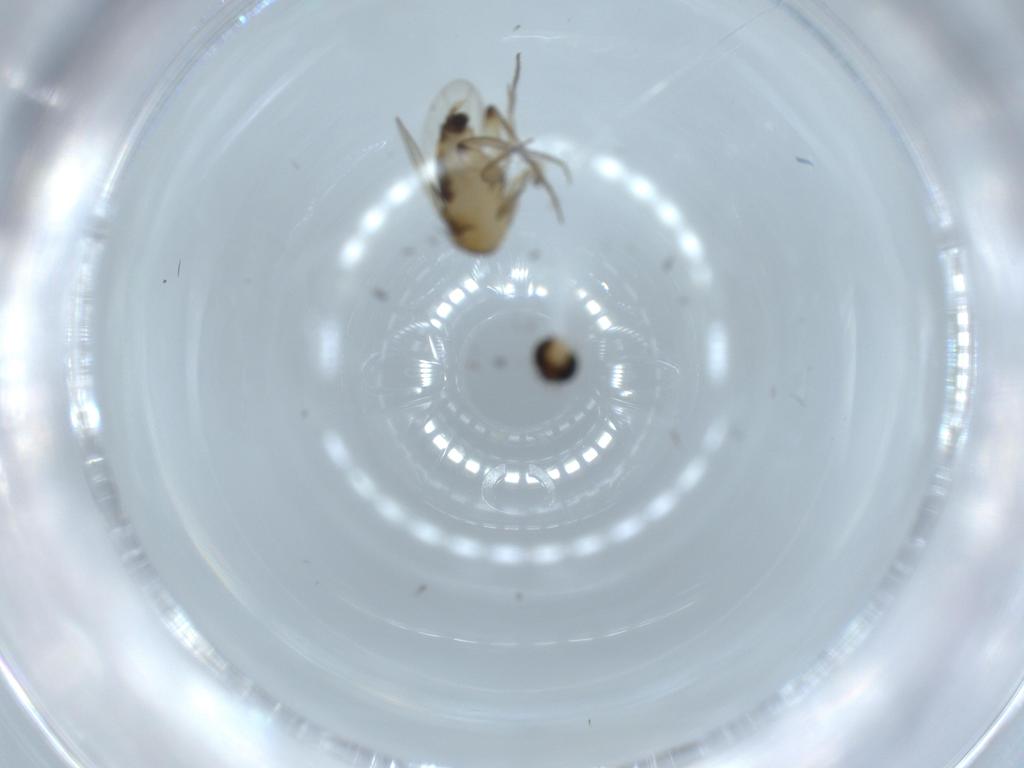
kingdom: Animalia
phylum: Arthropoda
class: Insecta
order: Diptera
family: Phoridae
